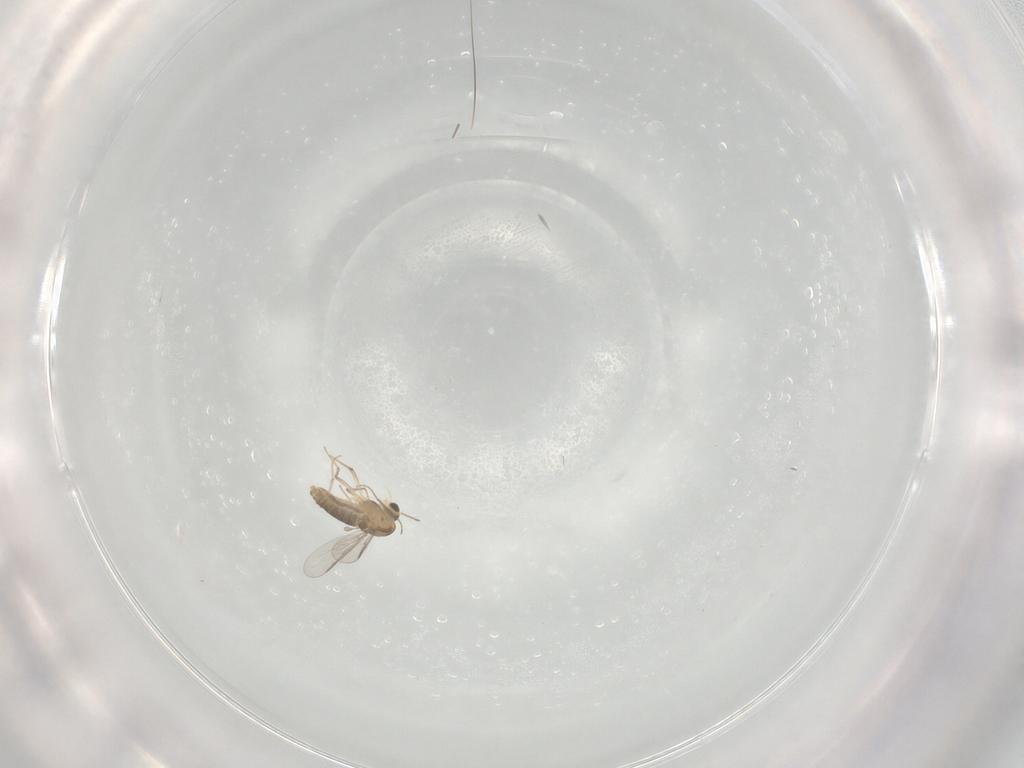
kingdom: Animalia
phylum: Arthropoda
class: Insecta
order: Diptera
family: Chironomidae
